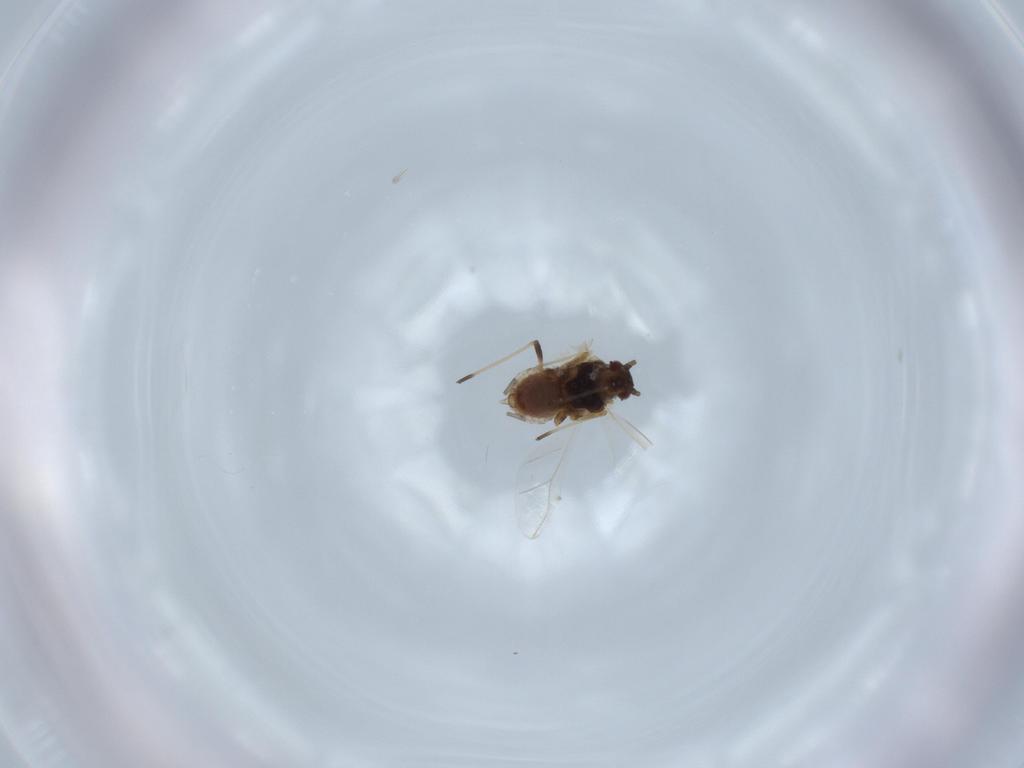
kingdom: Animalia
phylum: Arthropoda
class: Insecta
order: Hemiptera
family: Aphididae
